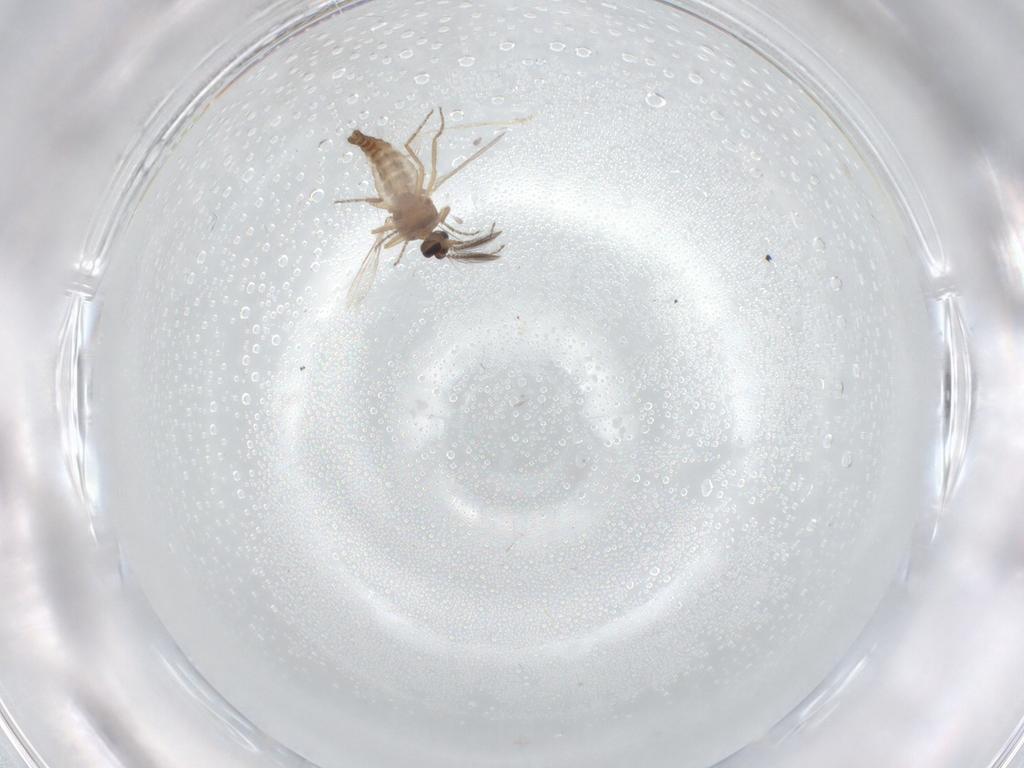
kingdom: Animalia
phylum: Arthropoda
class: Insecta
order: Diptera
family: Ceratopogonidae
